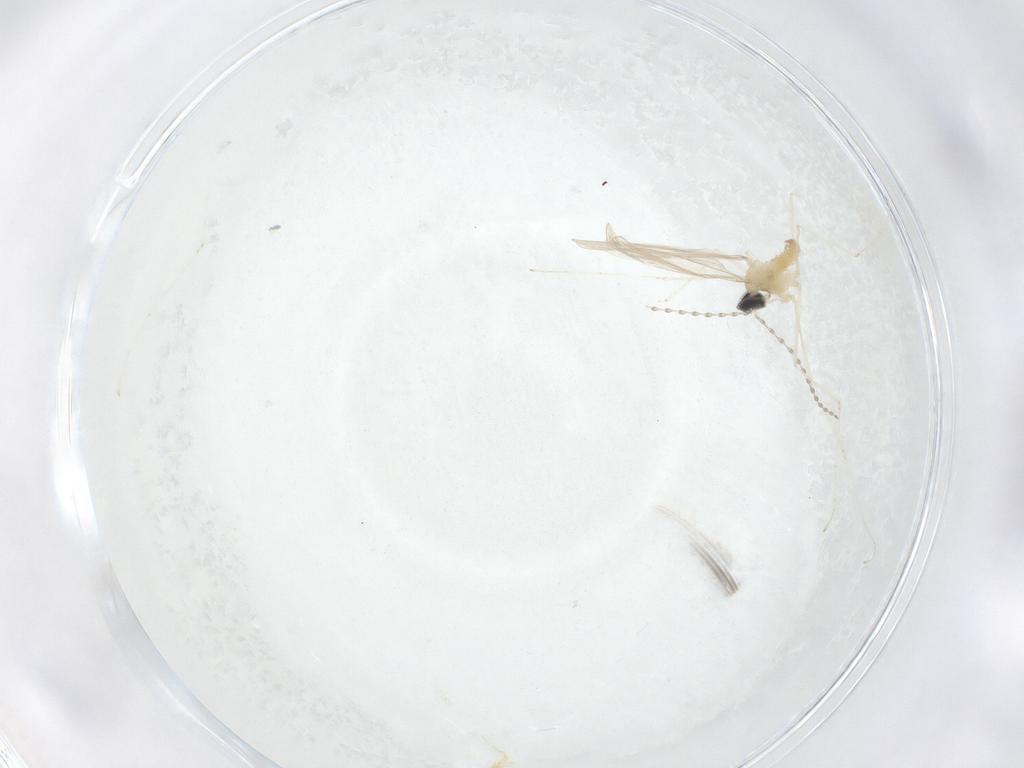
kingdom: Animalia
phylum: Arthropoda
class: Insecta
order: Diptera
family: Cecidomyiidae
